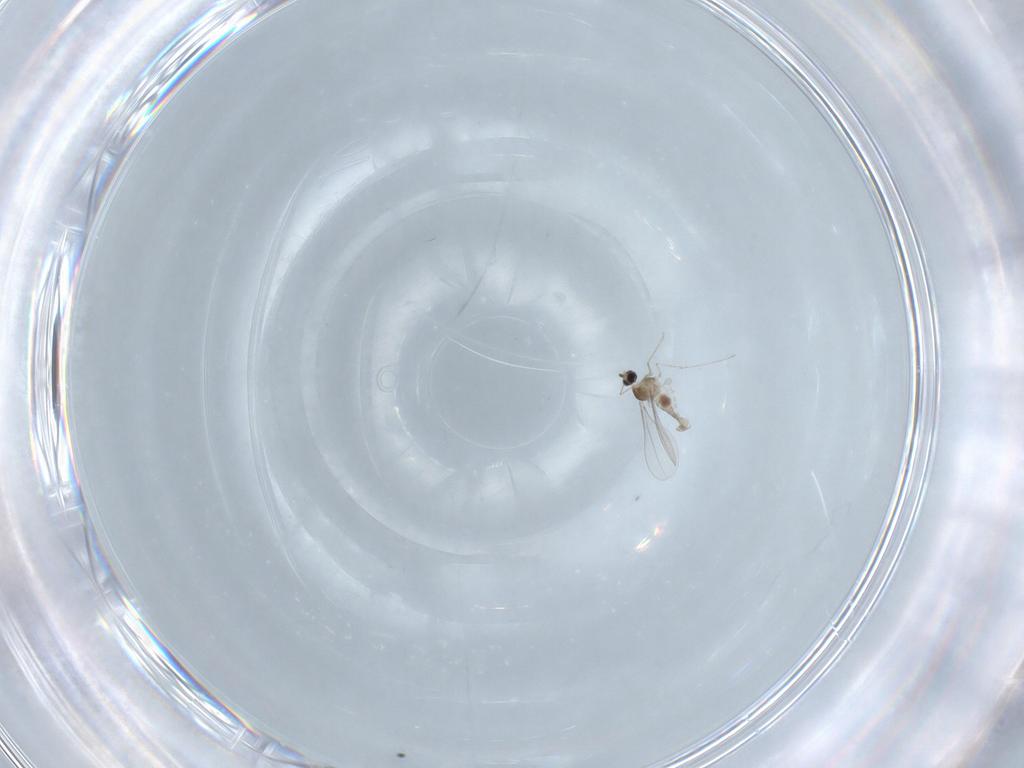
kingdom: Animalia
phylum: Arthropoda
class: Insecta
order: Diptera
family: Cecidomyiidae
